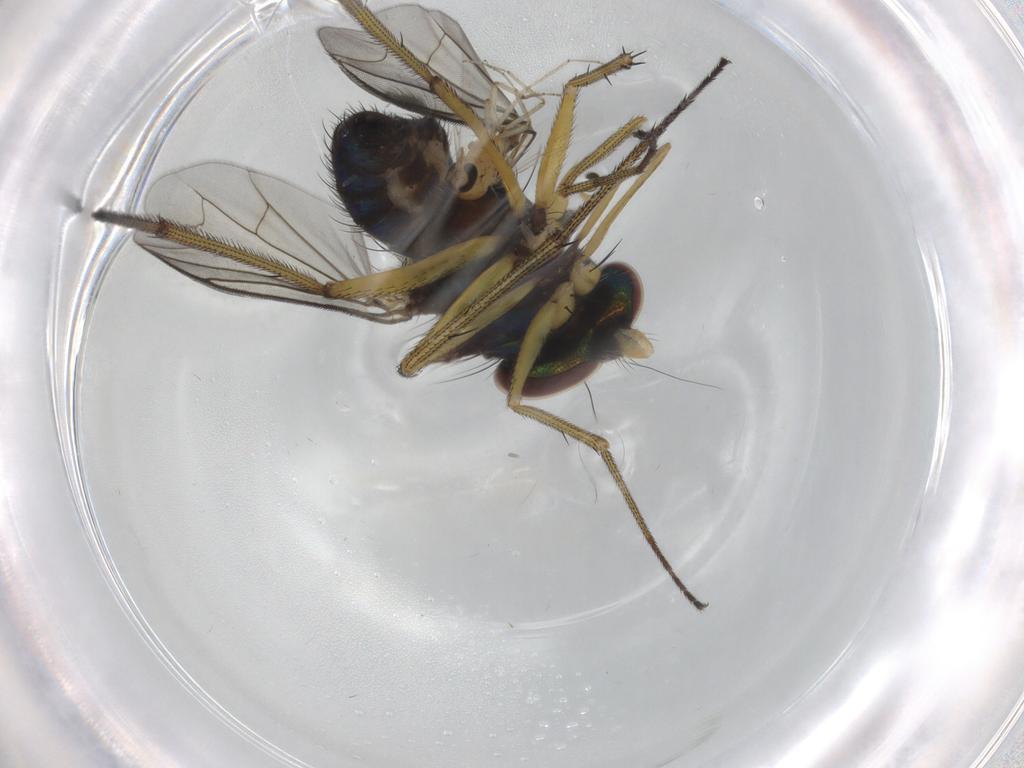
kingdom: Animalia
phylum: Arthropoda
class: Insecta
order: Diptera
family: Dolichopodidae
